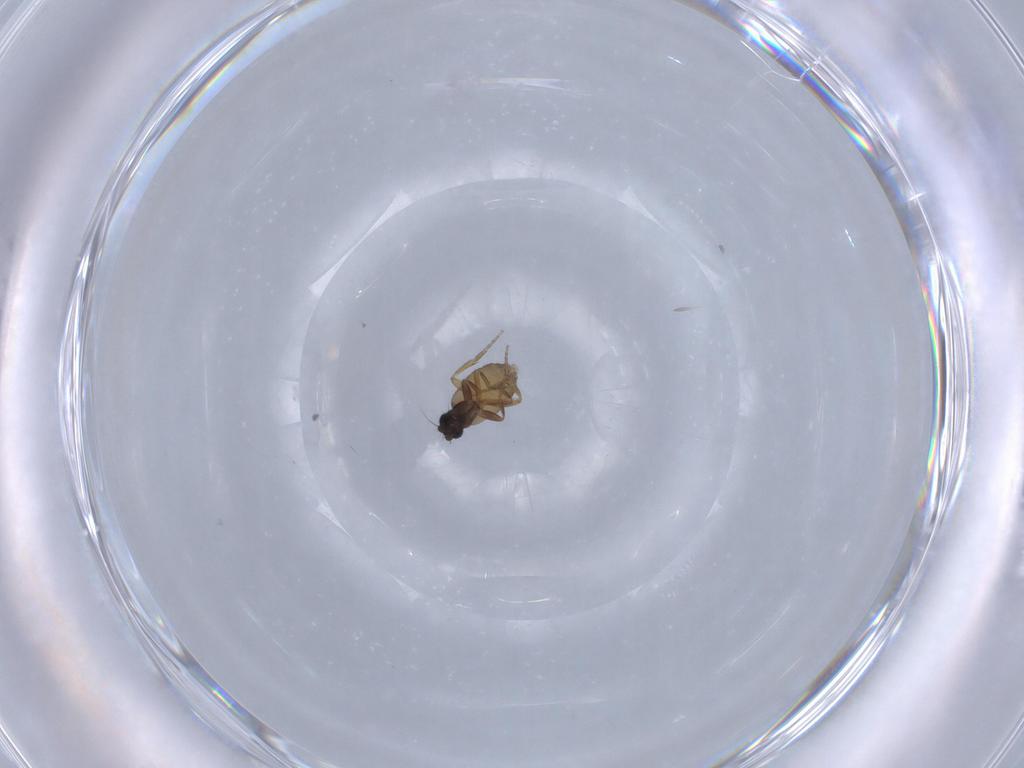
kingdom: Animalia
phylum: Arthropoda
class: Insecta
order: Diptera
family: Phoridae
